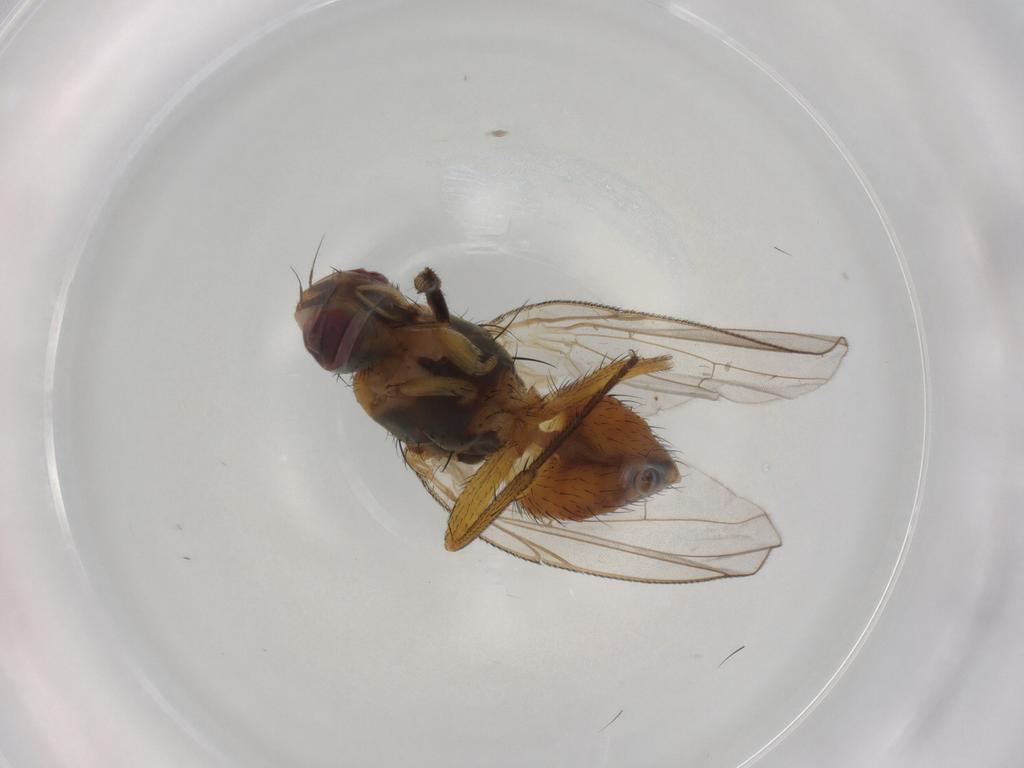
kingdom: Animalia
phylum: Arthropoda
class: Insecta
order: Diptera
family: Muscidae
